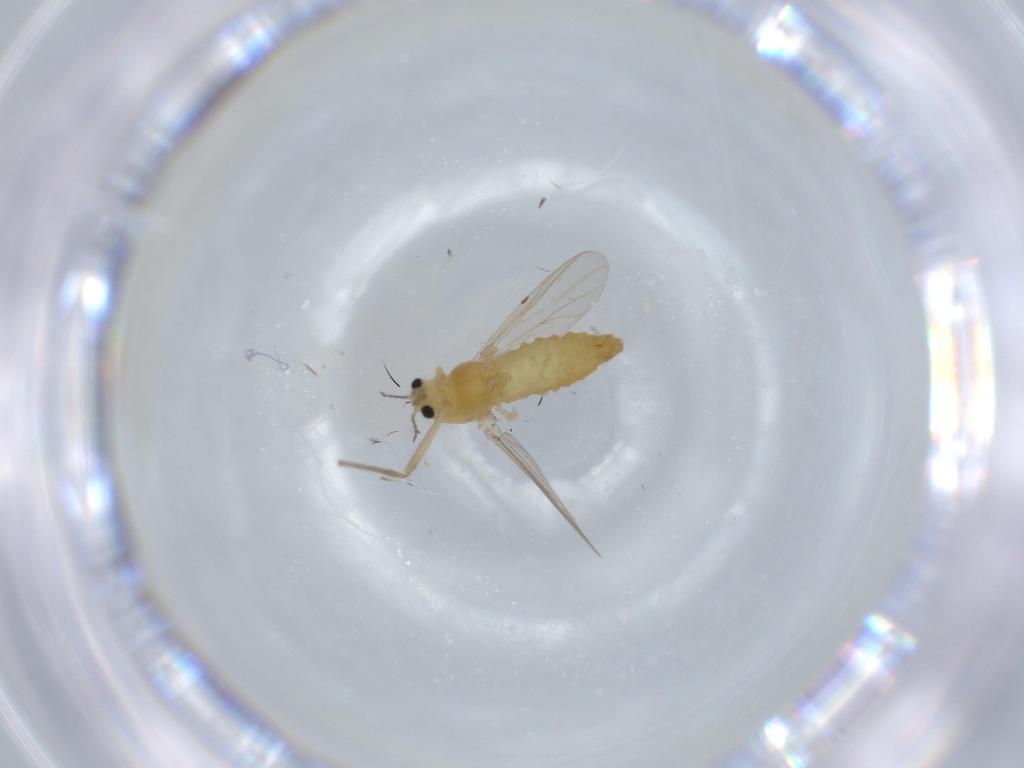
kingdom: Animalia
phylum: Arthropoda
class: Insecta
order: Diptera
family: Chironomidae
